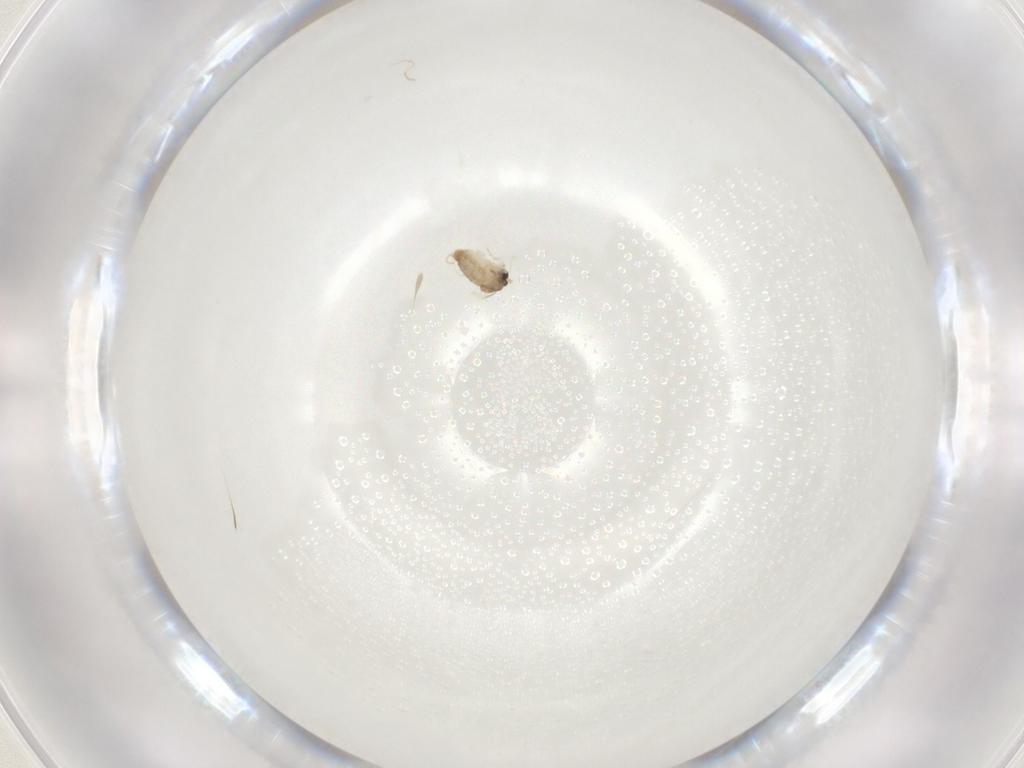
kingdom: Animalia
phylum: Arthropoda
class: Insecta
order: Diptera
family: Cecidomyiidae
